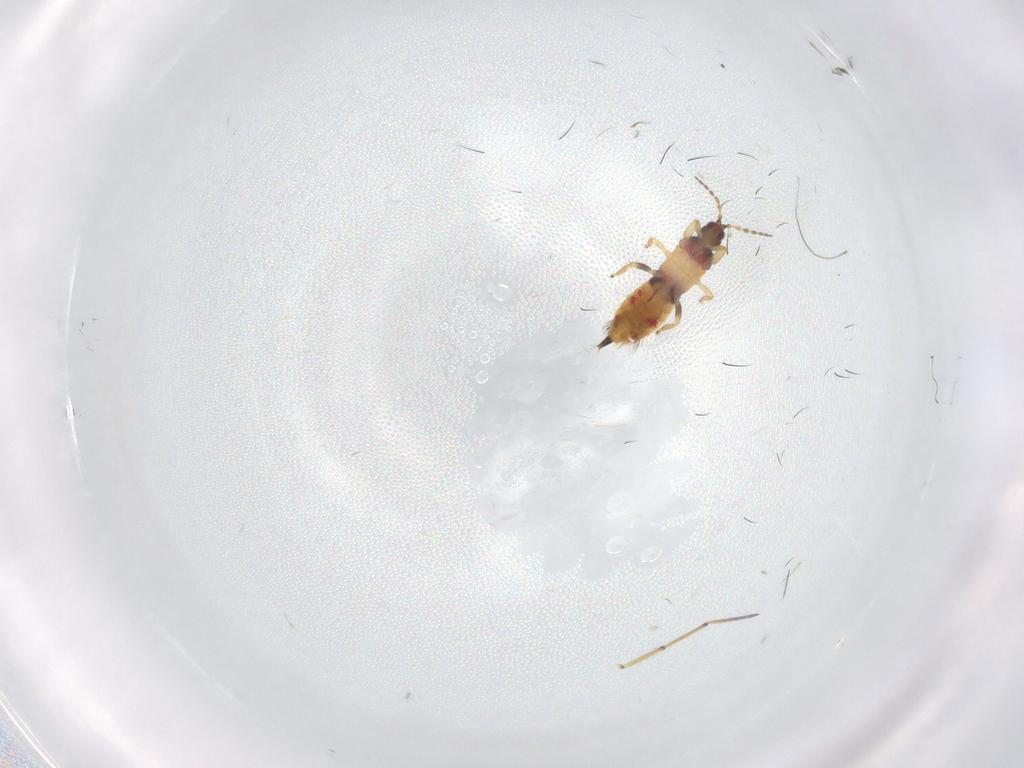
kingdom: Animalia
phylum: Arthropoda
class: Insecta
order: Thysanoptera
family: Phlaeothripidae
